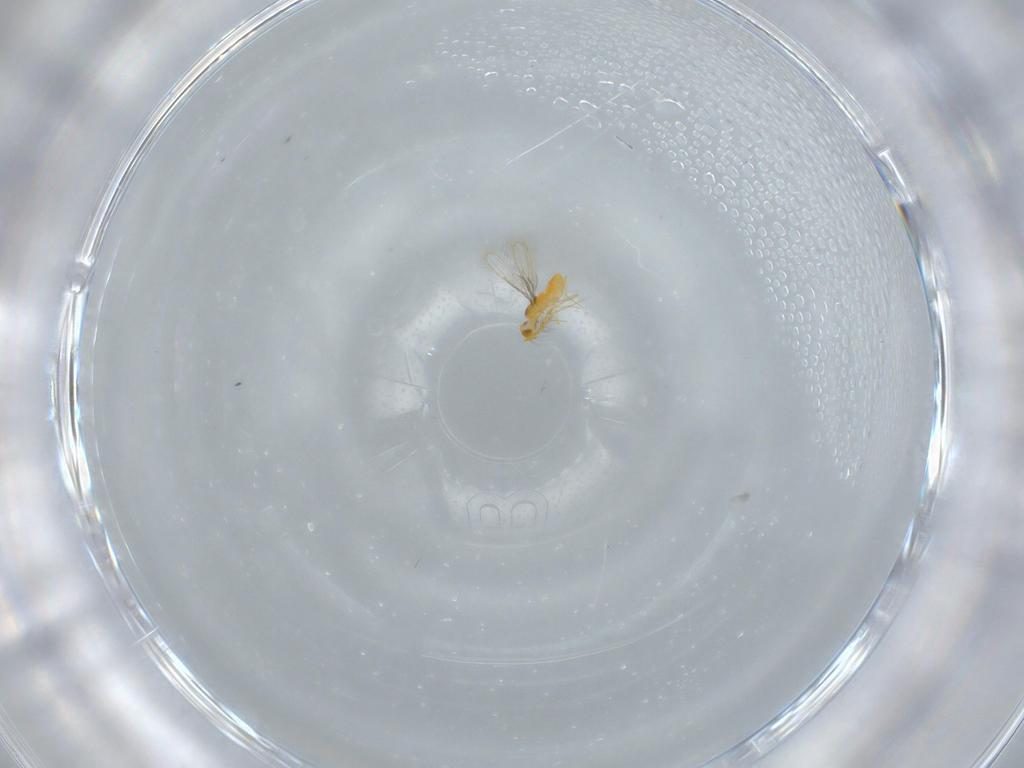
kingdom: Animalia
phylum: Arthropoda
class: Insecta
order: Hymenoptera
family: Aphelinidae
